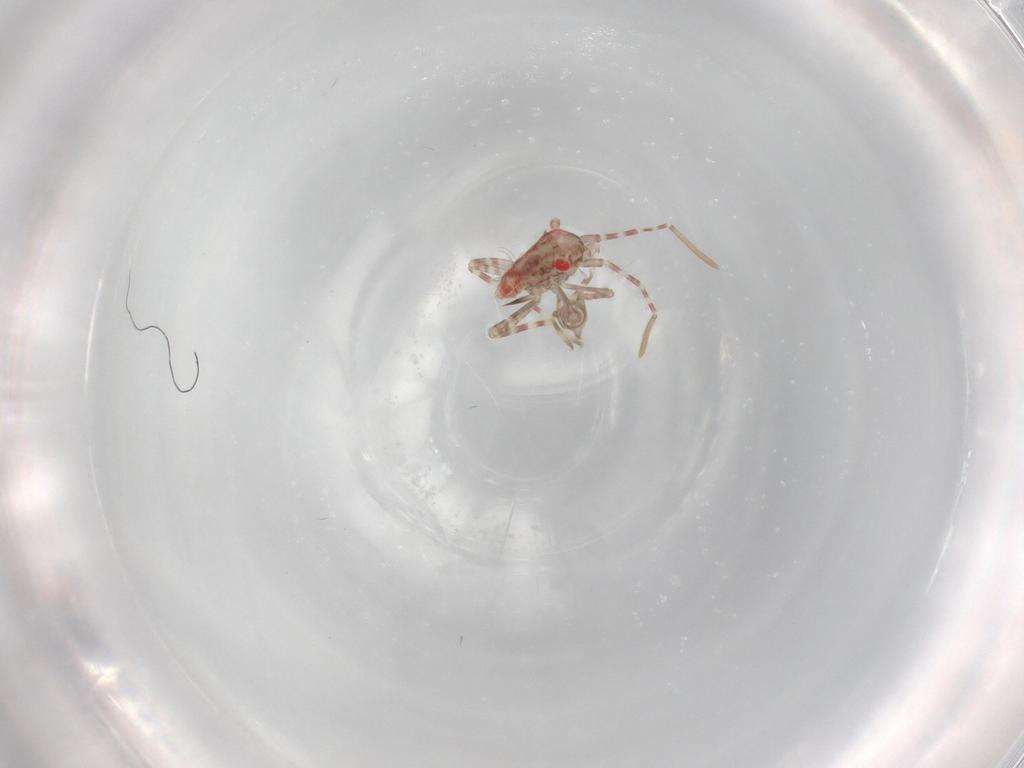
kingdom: Animalia
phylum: Arthropoda
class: Insecta
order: Hemiptera
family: Miridae
